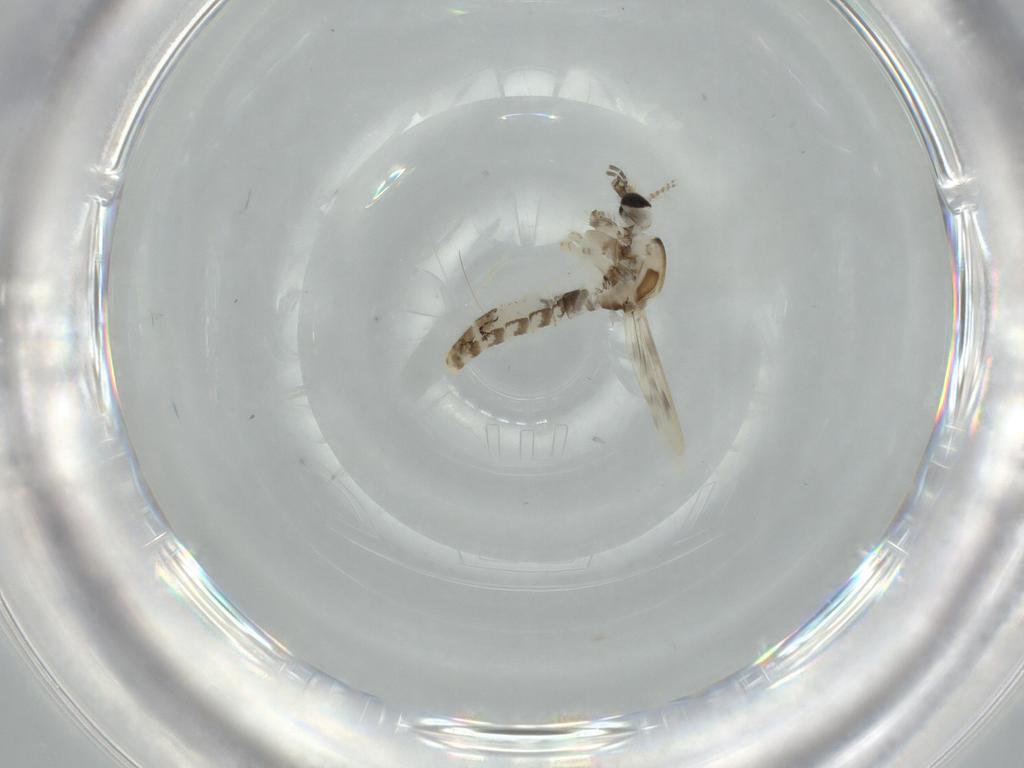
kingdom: Animalia
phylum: Arthropoda
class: Insecta
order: Diptera
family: Corethrellidae
